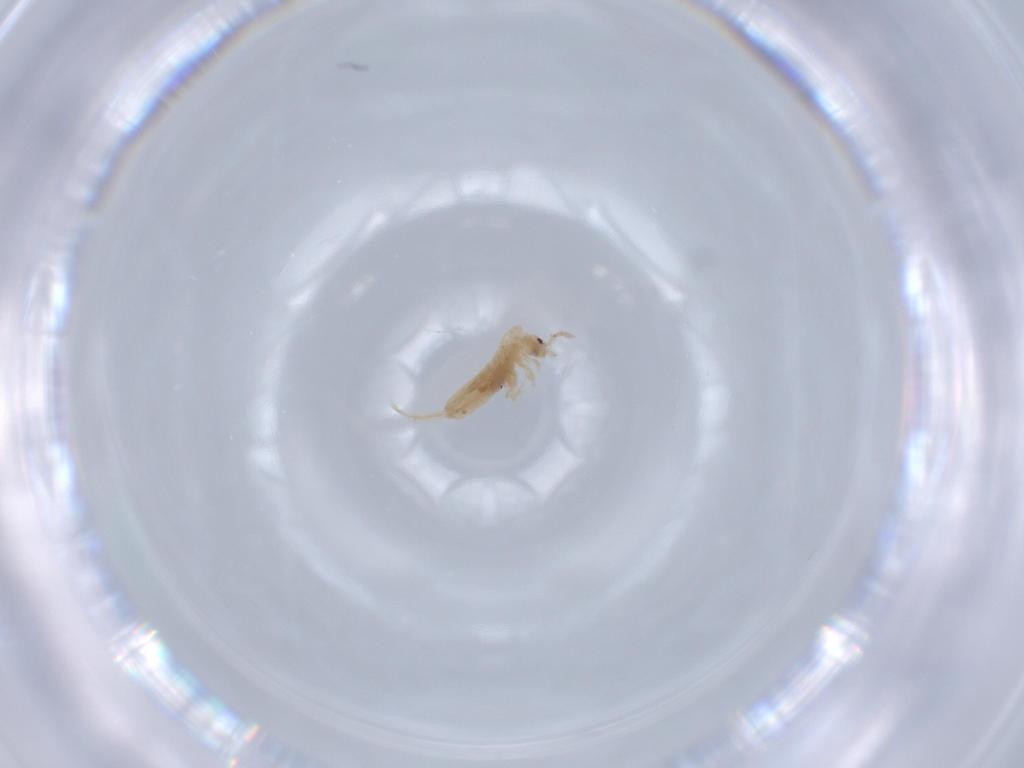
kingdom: Animalia
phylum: Arthropoda
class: Collembola
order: Entomobryomorpha
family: Entomobryidae
